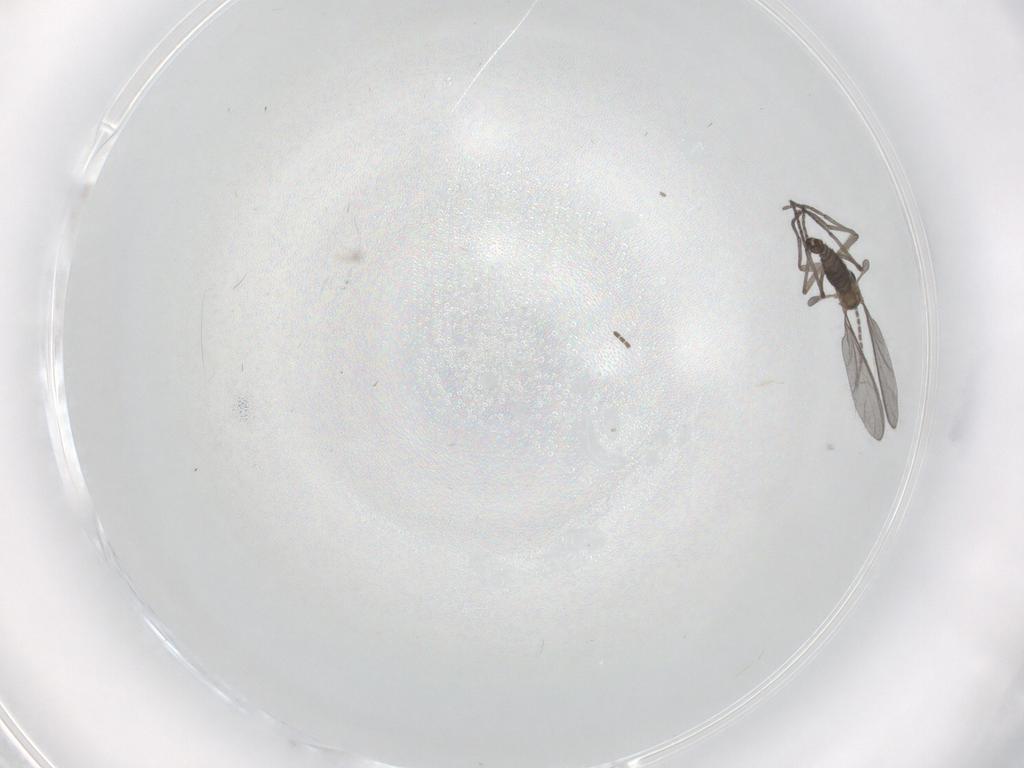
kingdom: Animalia
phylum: Arthropoda
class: Insecta
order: Diptera
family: Sciaridae
